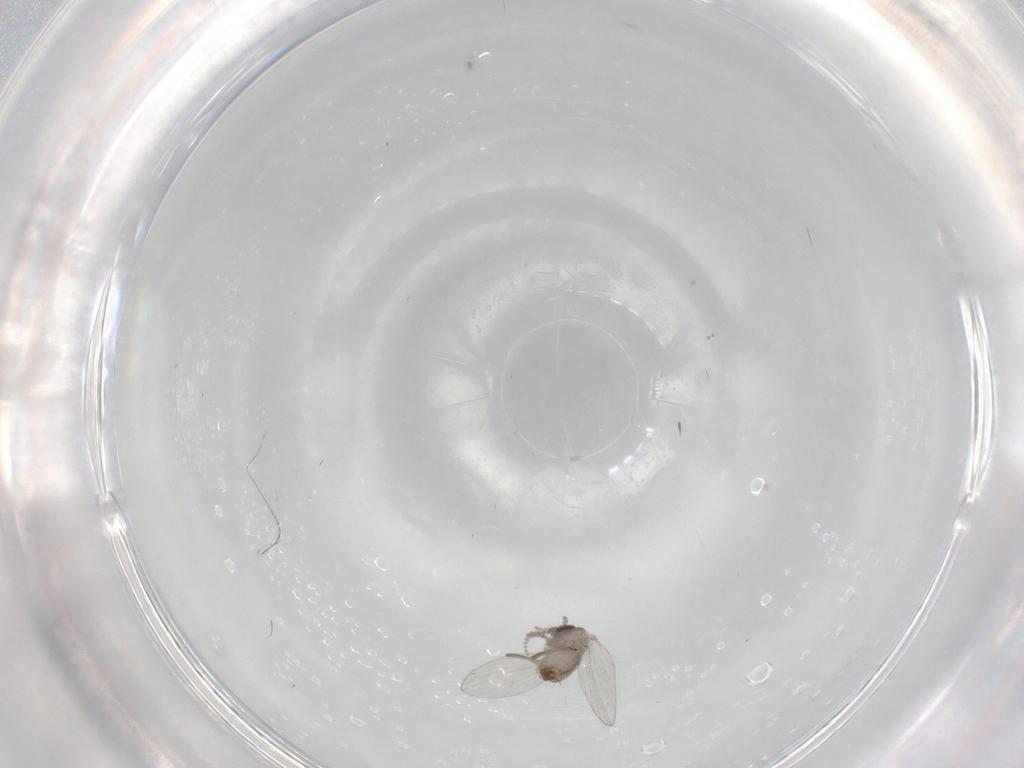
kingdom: Animalia
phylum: Arthropoda
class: Insecta
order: Diptera
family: Psychodidae
